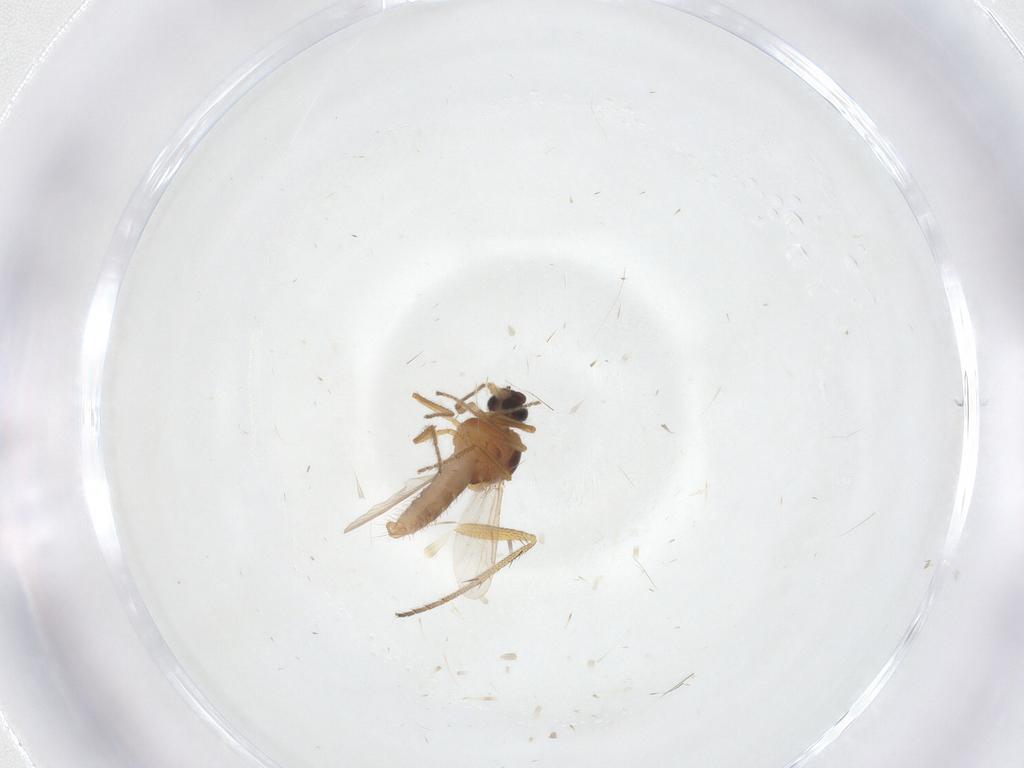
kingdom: Animalia
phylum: Arthropoda
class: Insecta
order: Diptera
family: Ceratopogonidae
